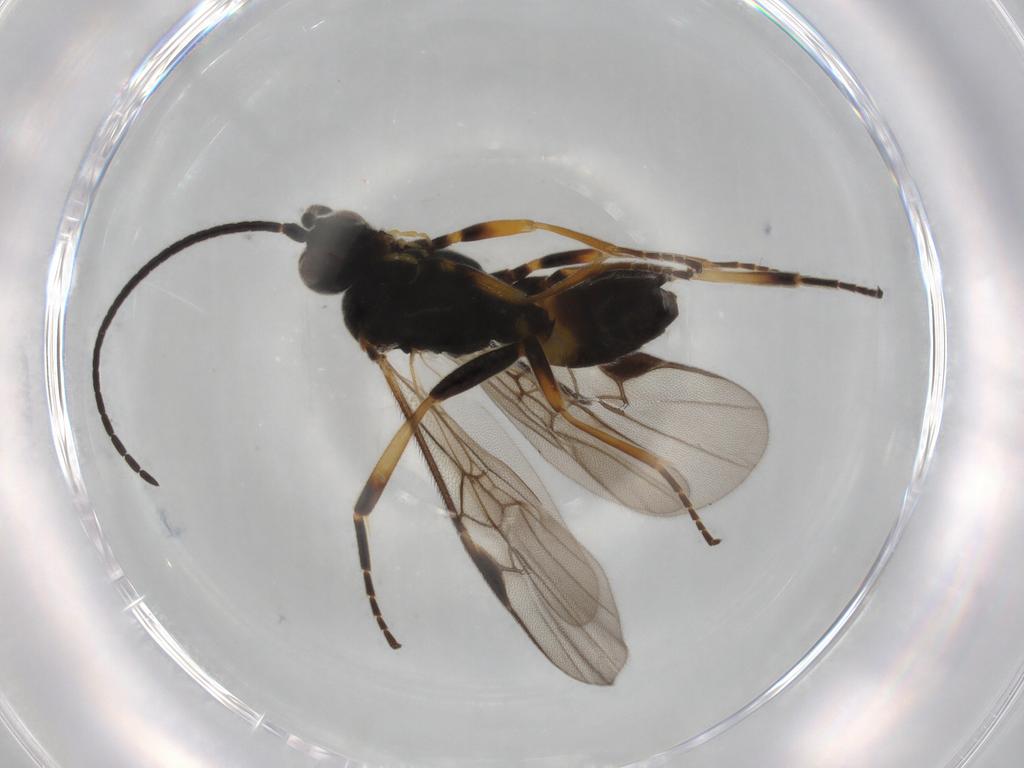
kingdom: Animalia
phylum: Arthropoda
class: Insecta
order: Hymenoptera
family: Braconidae
